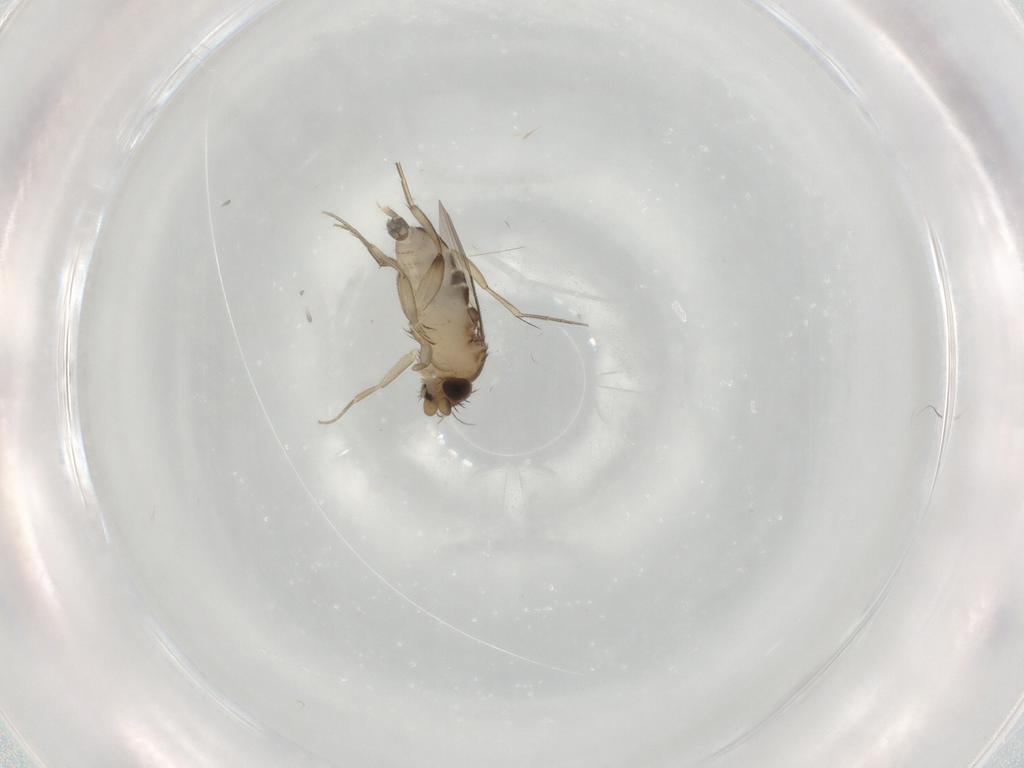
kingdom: Animalia
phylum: Arthropoda
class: Insecta
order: Diptera
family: Phoridae
